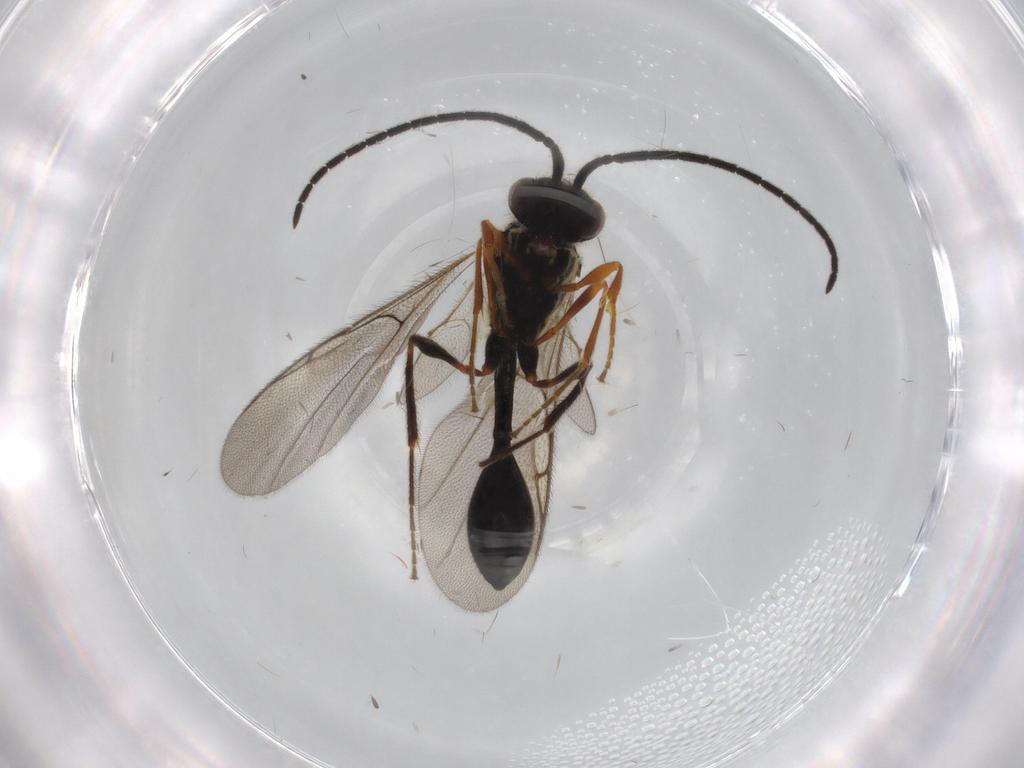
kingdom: Animalia
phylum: Arthropoda
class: Insecta
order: Hymenoptera
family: Diapriidae
